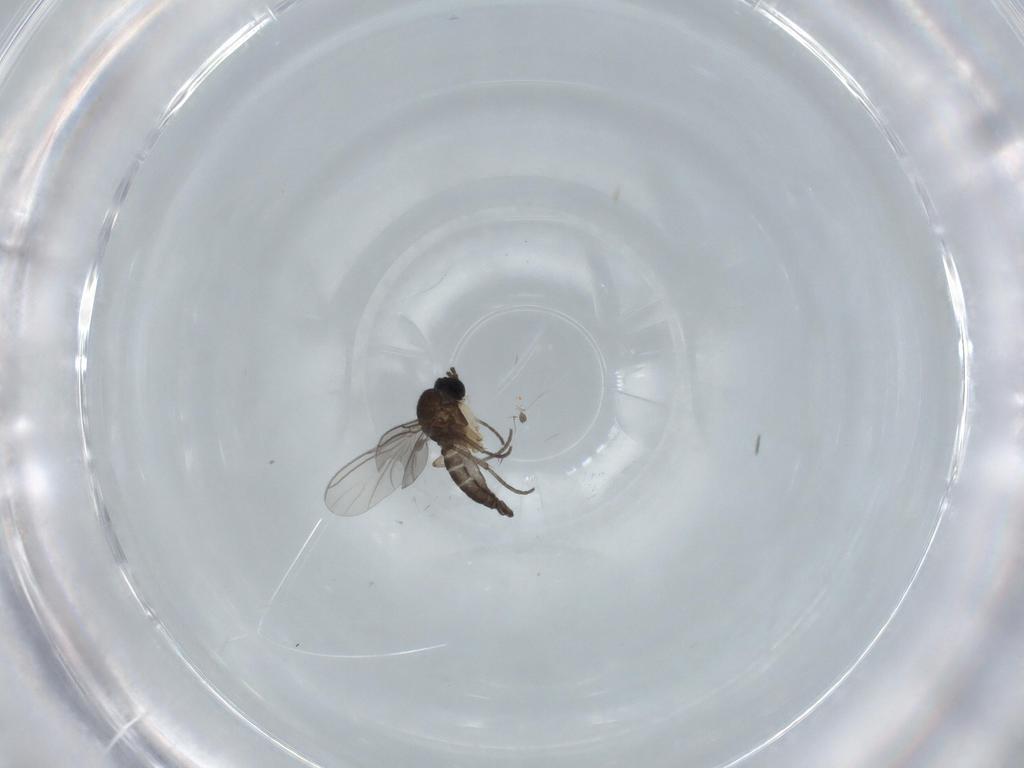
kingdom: Animalia
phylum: Arthropoda
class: Insecta
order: Diptera
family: Sciaridae
